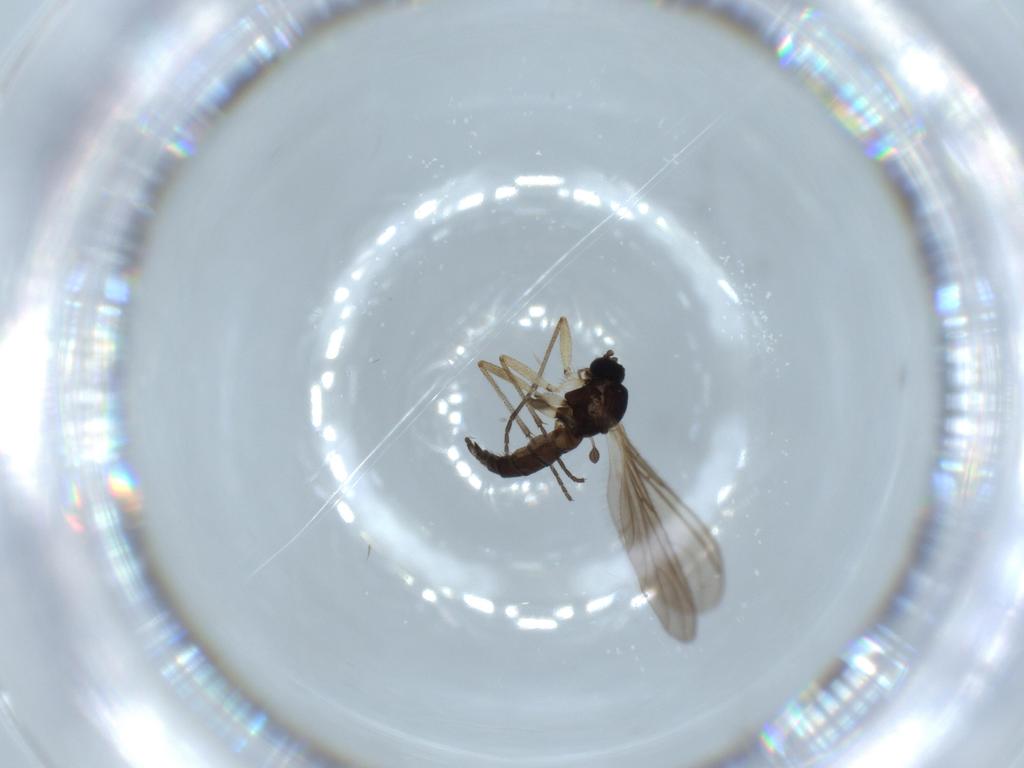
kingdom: Animalia
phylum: Arthropoda
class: Insecta
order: Diptera
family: Sciaridae
